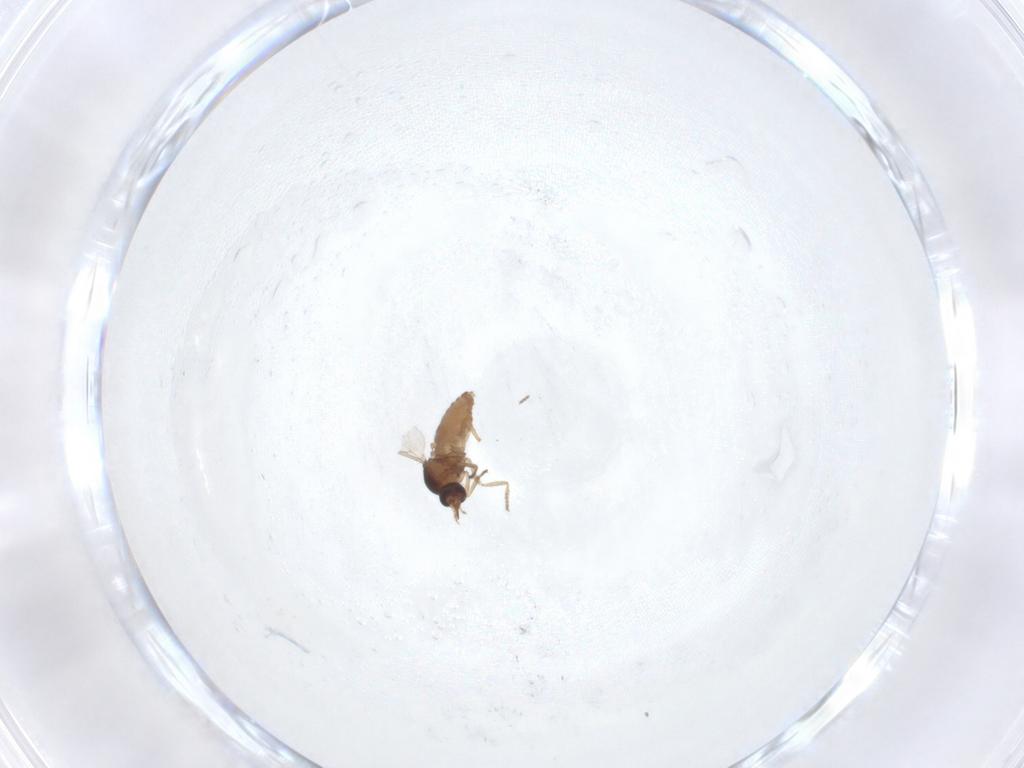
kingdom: Animalia
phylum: Arthropoda
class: Insecta
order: Diptera
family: Ceratopogonidae
